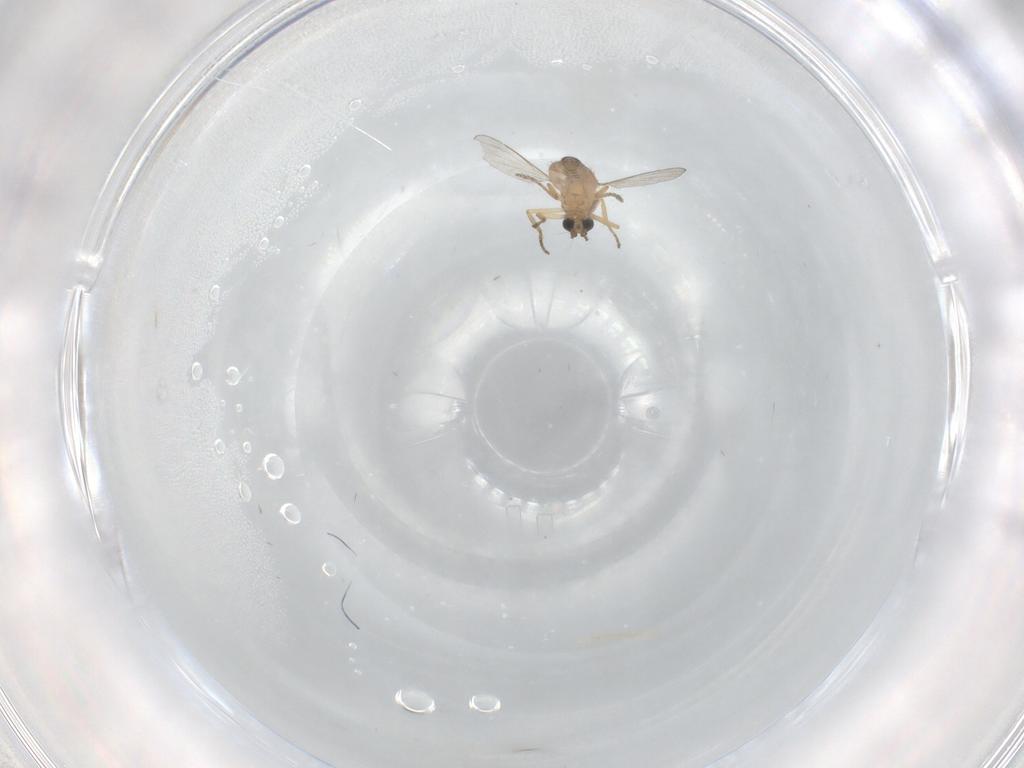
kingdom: Animalia
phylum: Arthropoda
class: Insecta
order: Diptera
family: Ceratopogonidae
